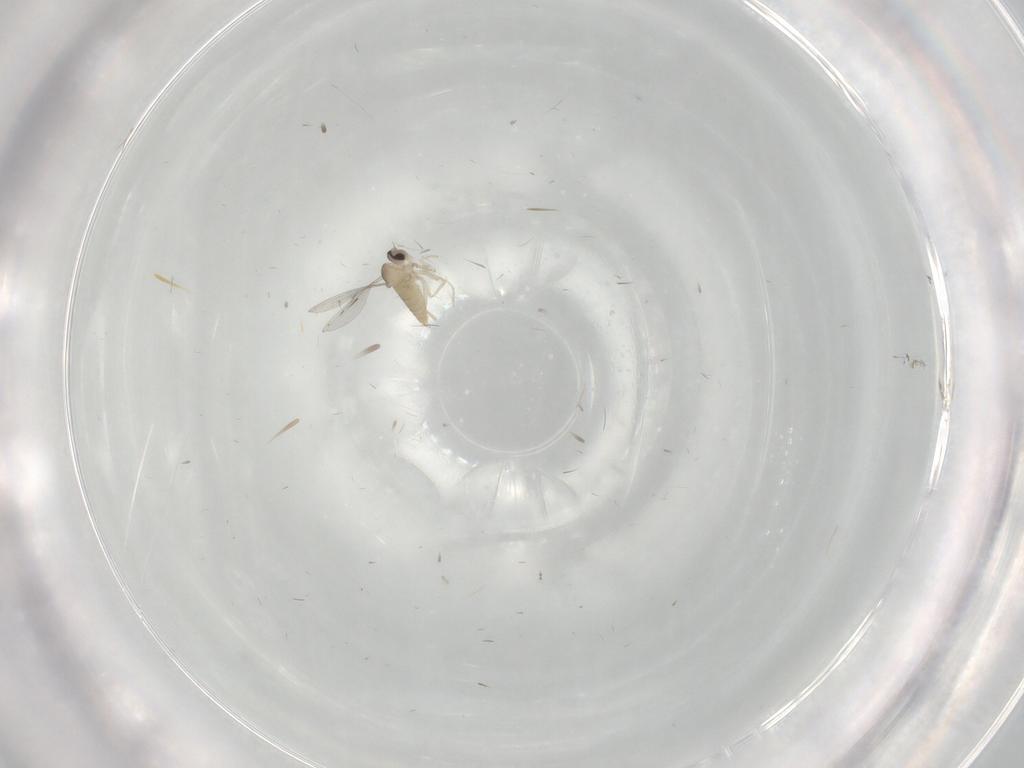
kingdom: Animalia
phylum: Arthropoda
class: Insecta
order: Diptera
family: Cecidomyiidae
